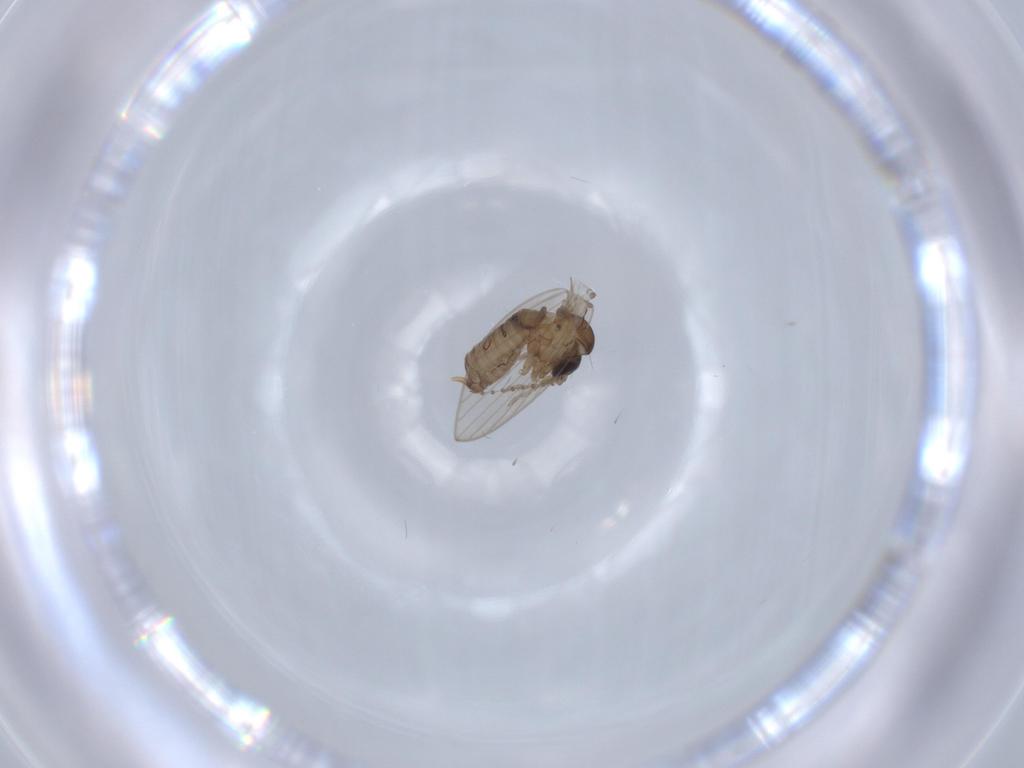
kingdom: Animalia
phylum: Arthropoda
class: Insecta
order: Diptera
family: Psychodidae
